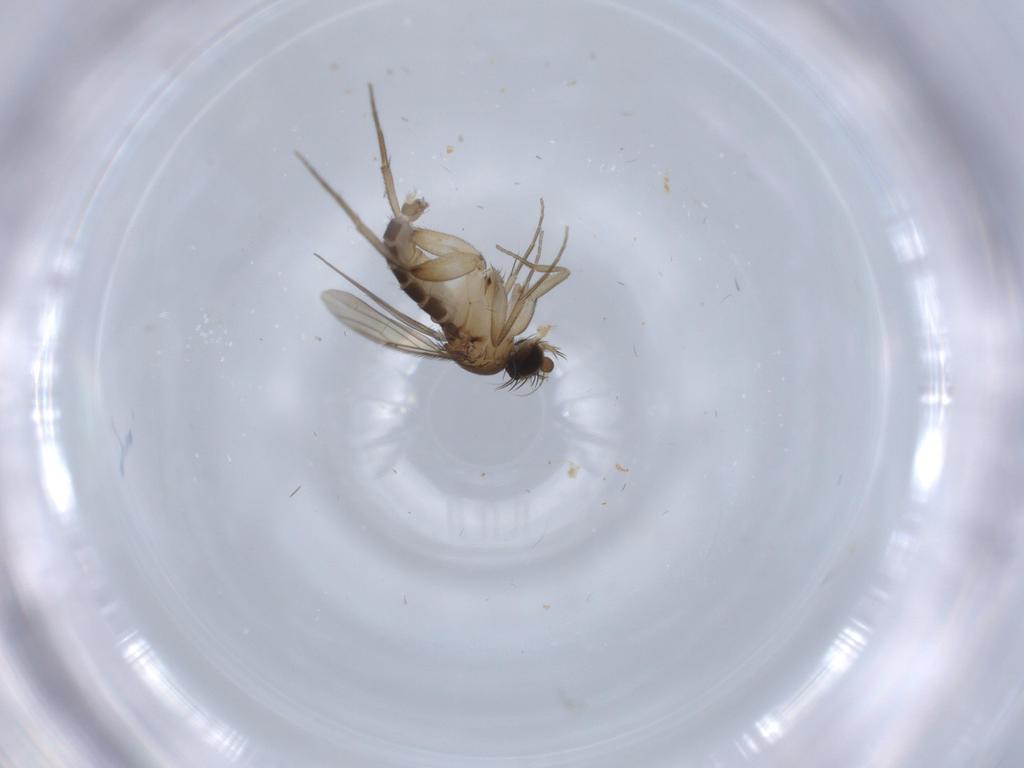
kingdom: Animalia
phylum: Arthropoda
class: Insecta
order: Diptera
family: Phoridae
